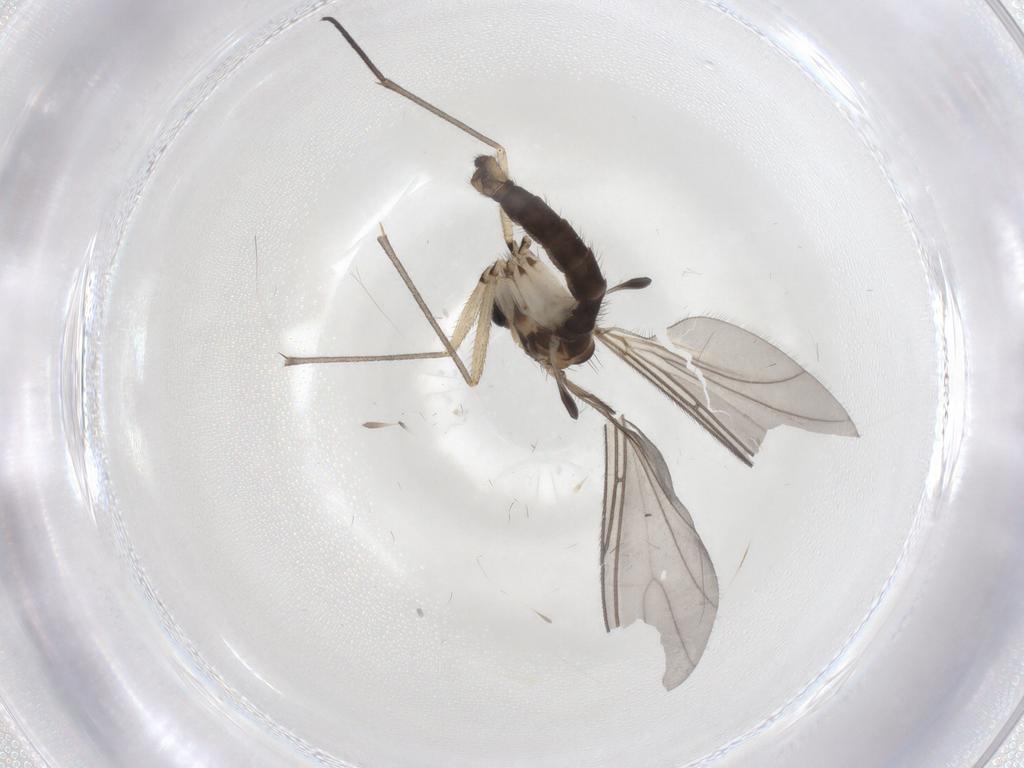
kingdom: Animalia
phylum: Arthropoda
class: Insecta
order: Diptera
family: Sciaridae
